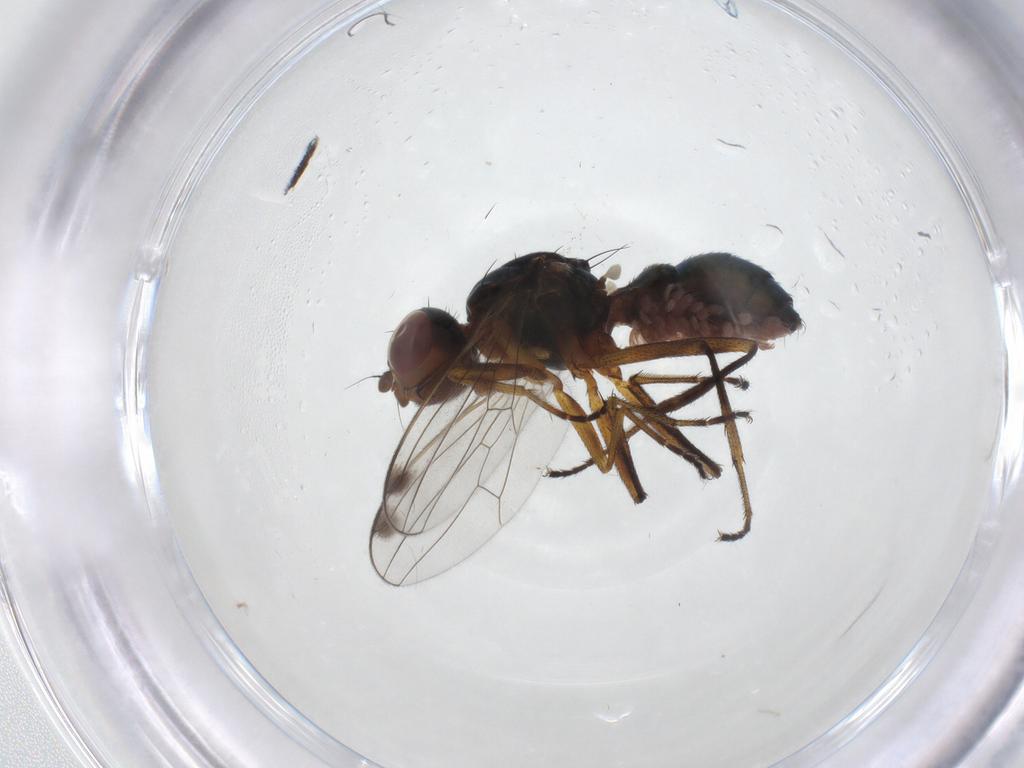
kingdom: Animalia
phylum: Arthropoda
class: Insecta
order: Diptera
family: Sepsidae
